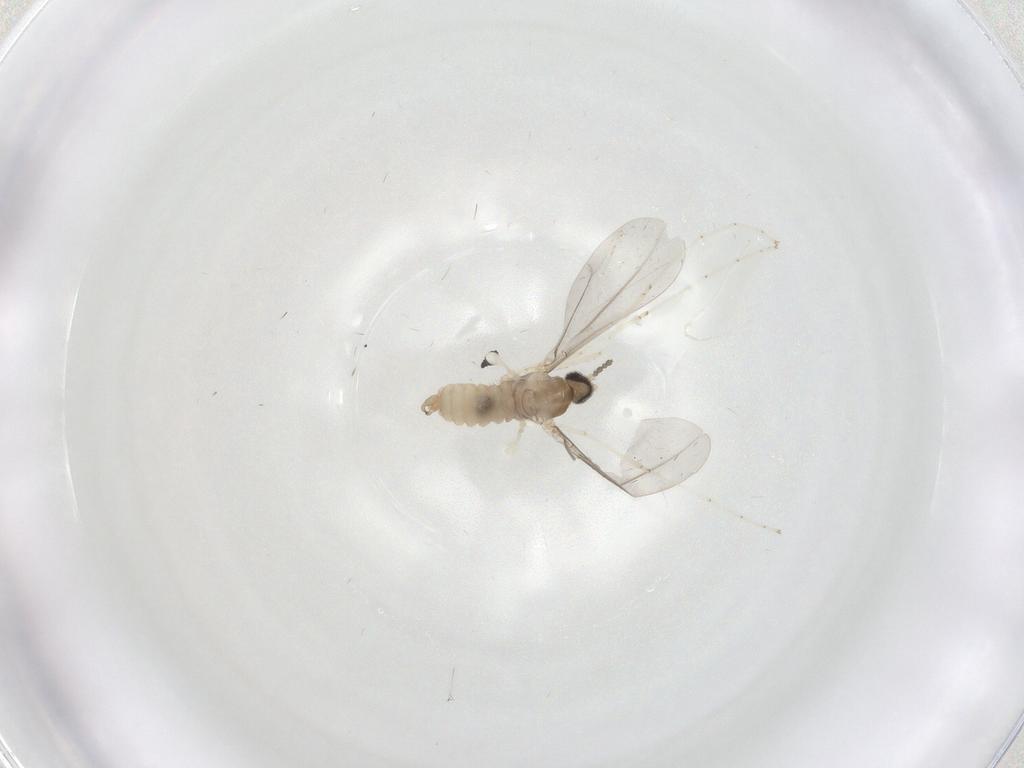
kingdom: Animalia
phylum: Arthropoda
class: Insecta
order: Diptera
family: Cecidomyiidae
